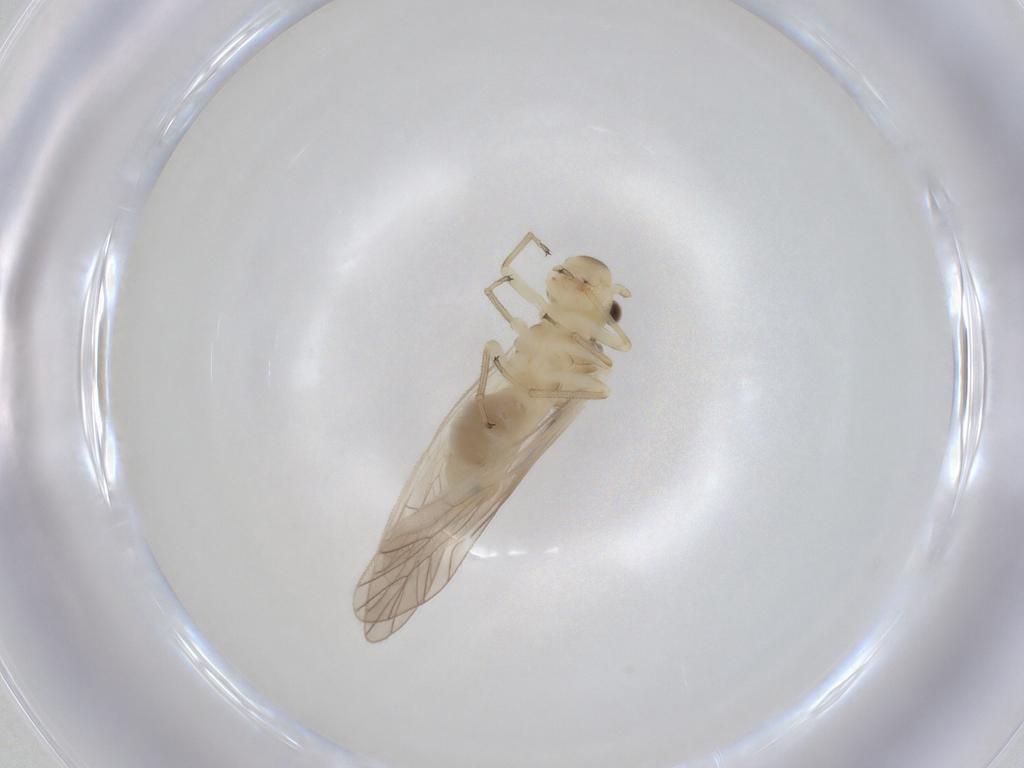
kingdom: Animalia
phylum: Arthropoda
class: Insecta
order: Psocodea
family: Caeciliusidae
